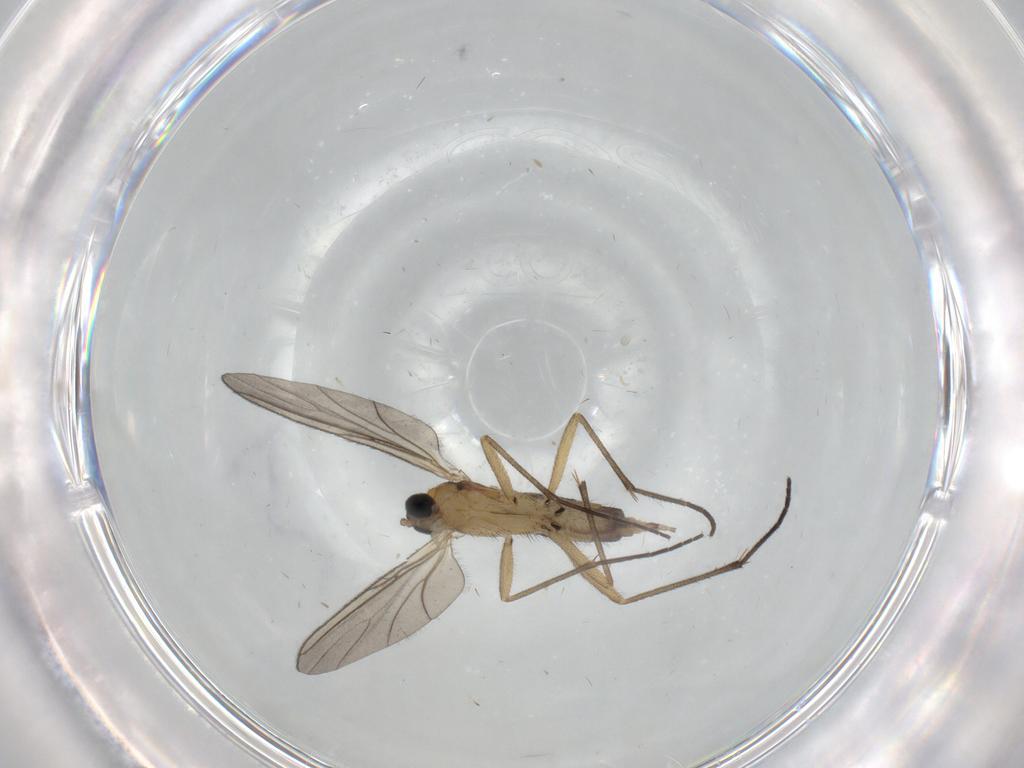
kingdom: Animalia
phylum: Arthropoda
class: Insecta
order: Diptera
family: Sciaridae
